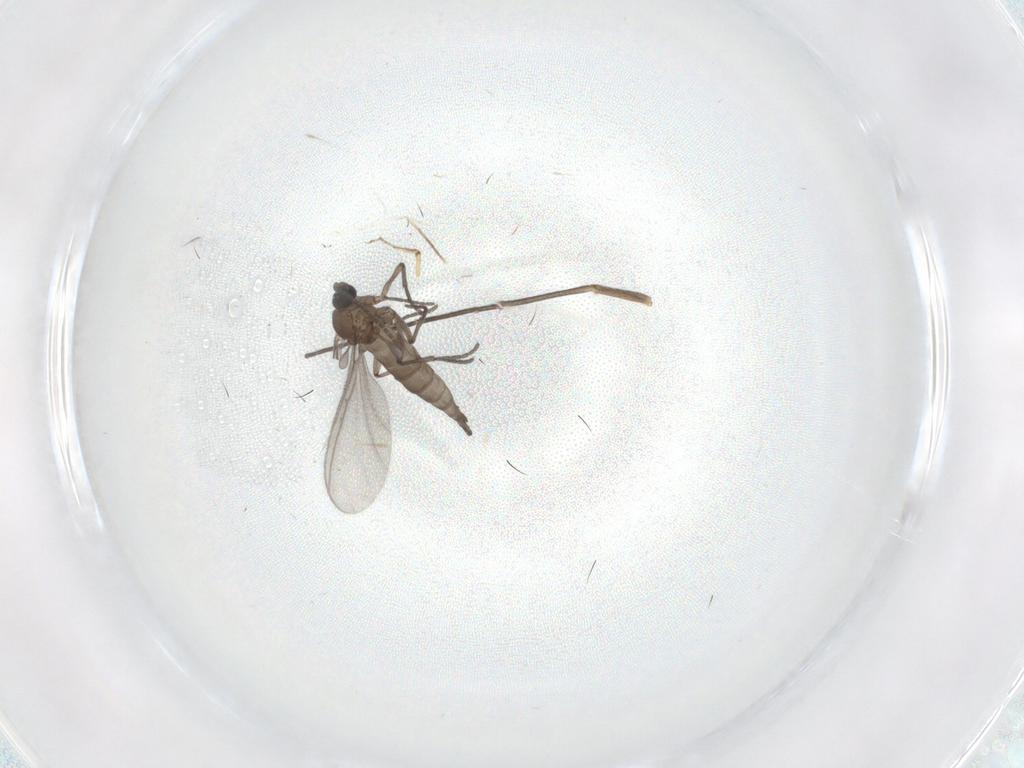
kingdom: Animalia
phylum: Arthropoda
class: Insecta
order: Diptera
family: Sciaridae
